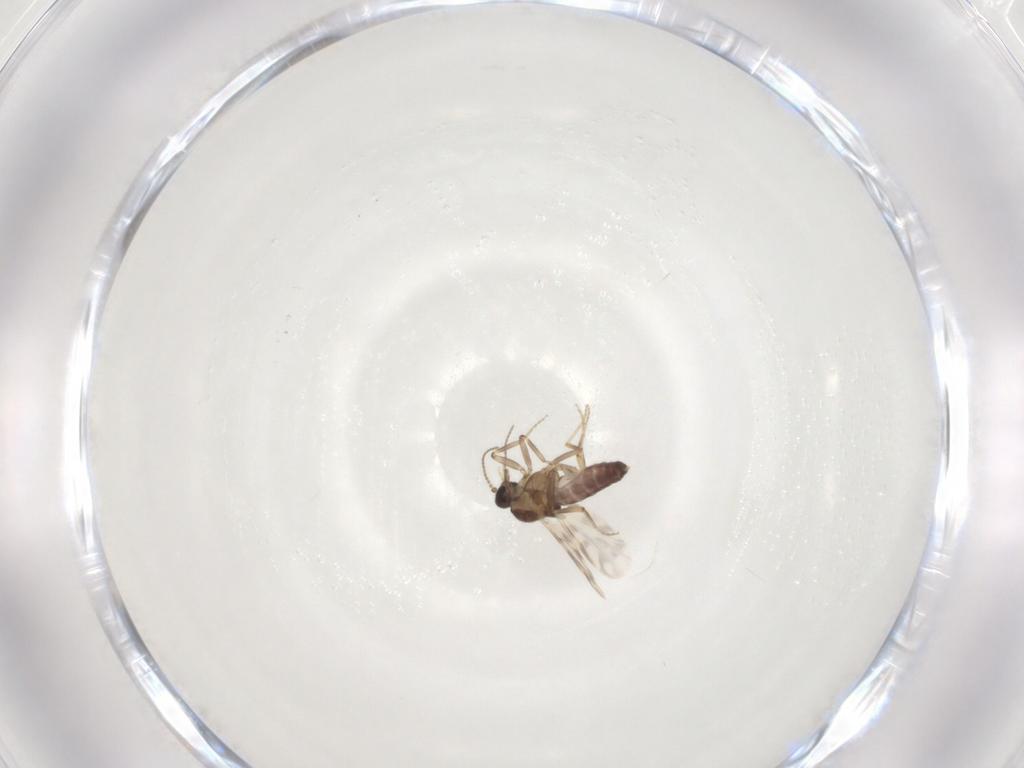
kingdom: Animalia
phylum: Arthropoda
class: Insecta
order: Diptera
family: Ceratopogonidae
